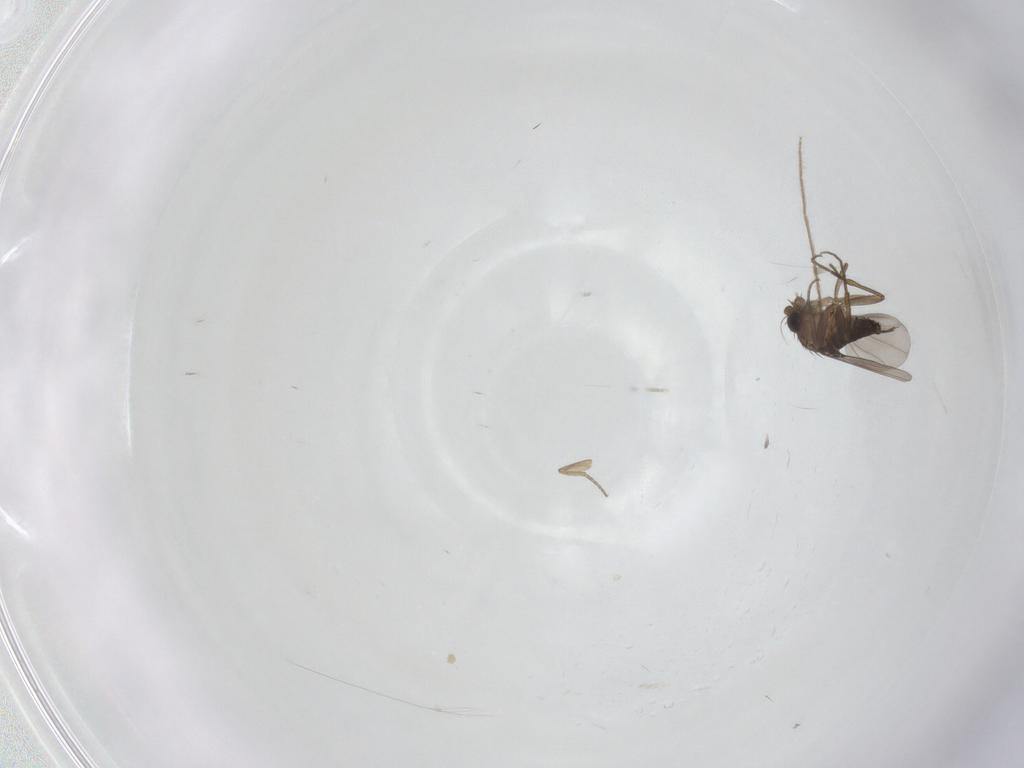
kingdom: Animalia
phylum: Arthropoda
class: Insecta
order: Diptera
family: Phoridae
